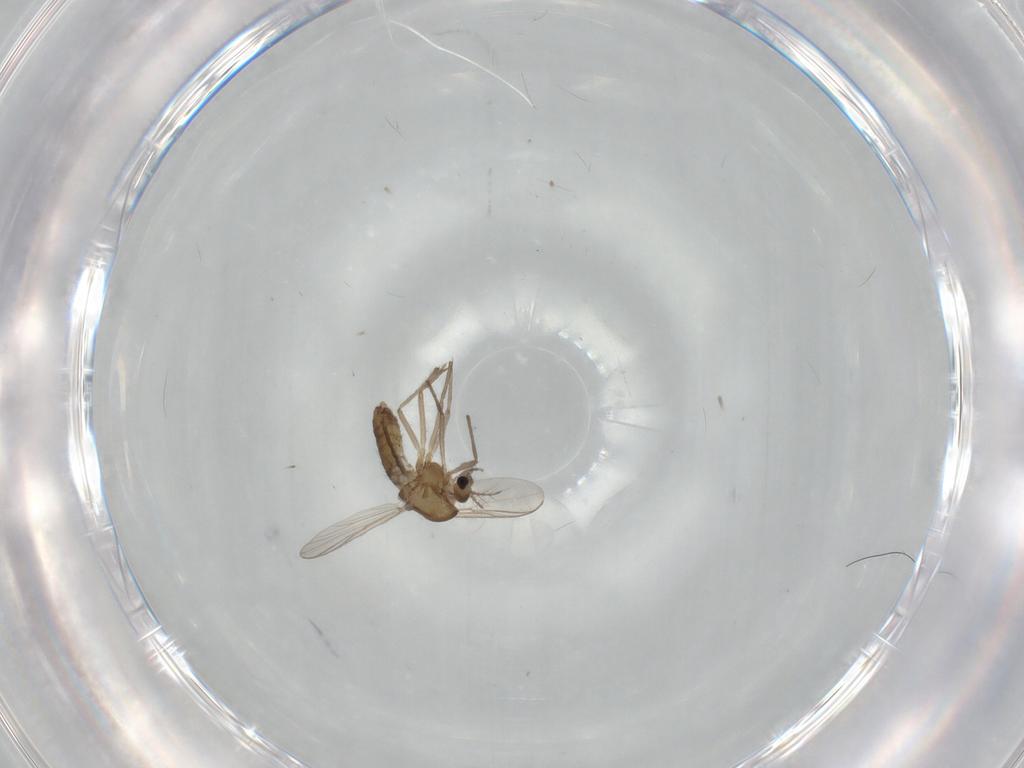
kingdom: Animalia
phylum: Arthropoda
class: Insecta
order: Diptera
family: Chironomidae
